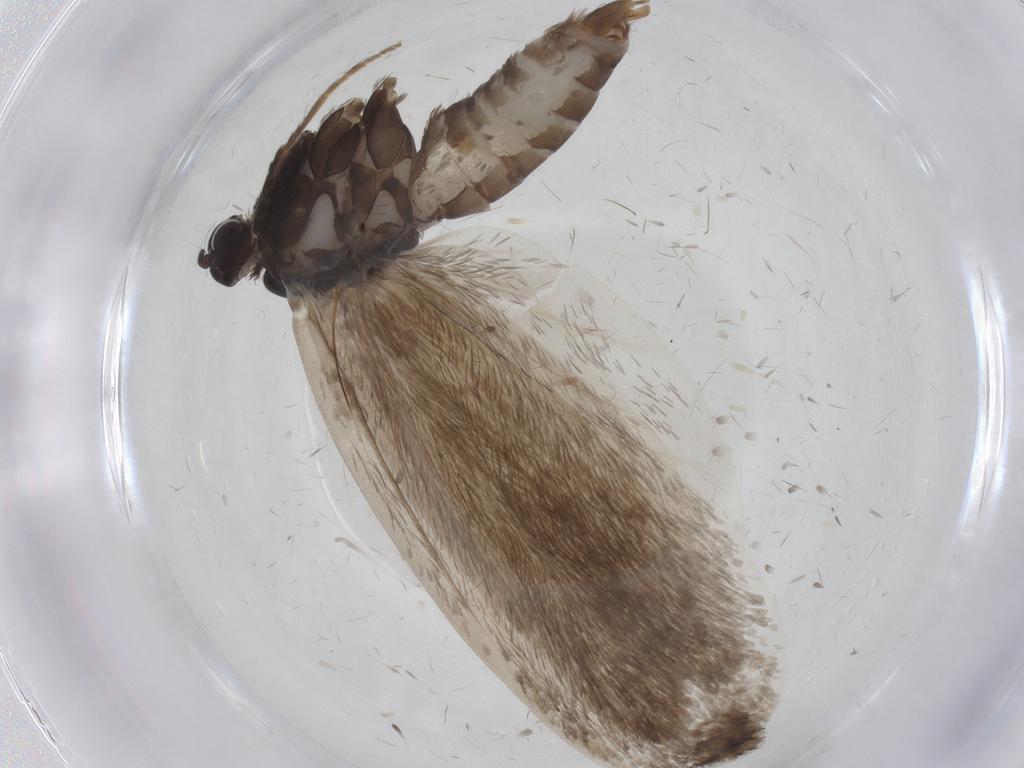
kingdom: Animalia
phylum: Arthropoda
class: Insecta
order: Lepidoptera
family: Psychidae
